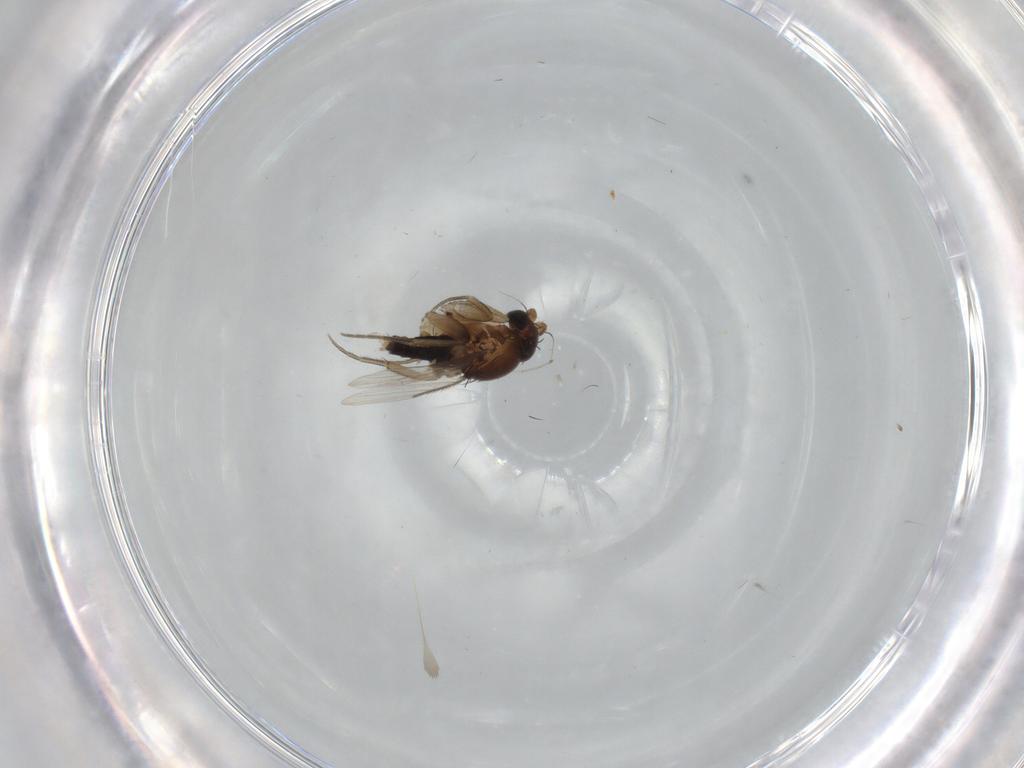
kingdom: Animalia
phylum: Arthropoda
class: Insecta
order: Diptera
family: Phoridae
